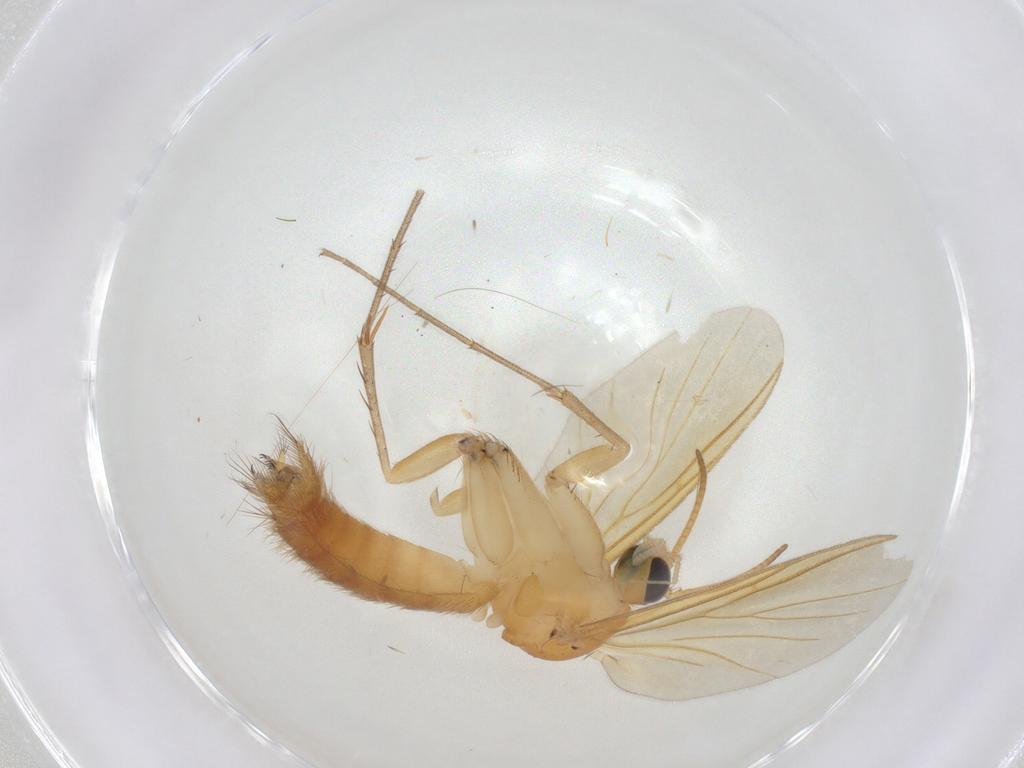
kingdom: Animalia
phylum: Arthropoda
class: Insecta
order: Diptera
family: Mycetophilidae
